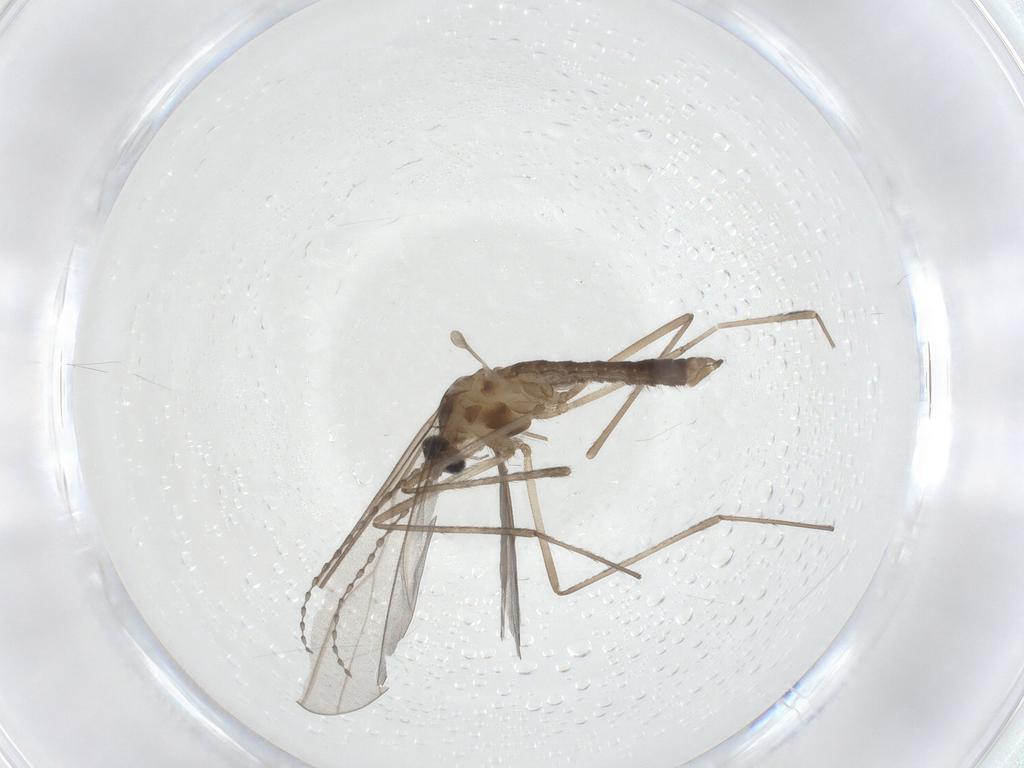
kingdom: Animalia
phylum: Arthropoda
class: Insecta
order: Diptera
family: Cecidomyiidae
